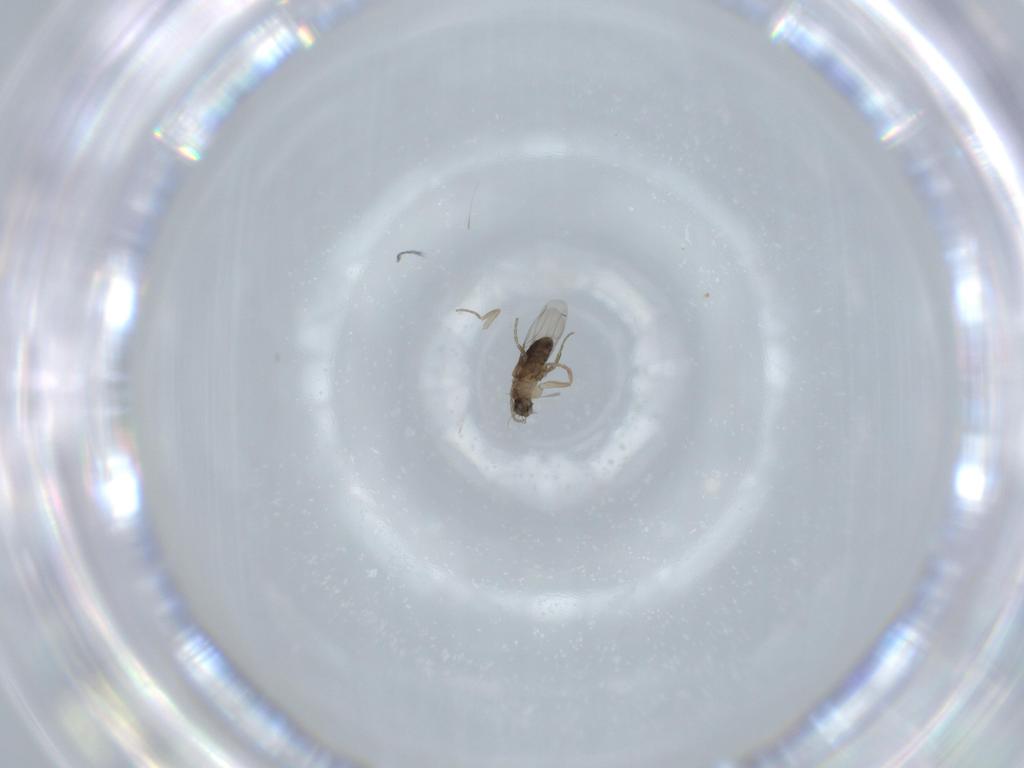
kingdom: Animalia
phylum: Arthropoda
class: Insecta
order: Diptera
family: Phoridae
